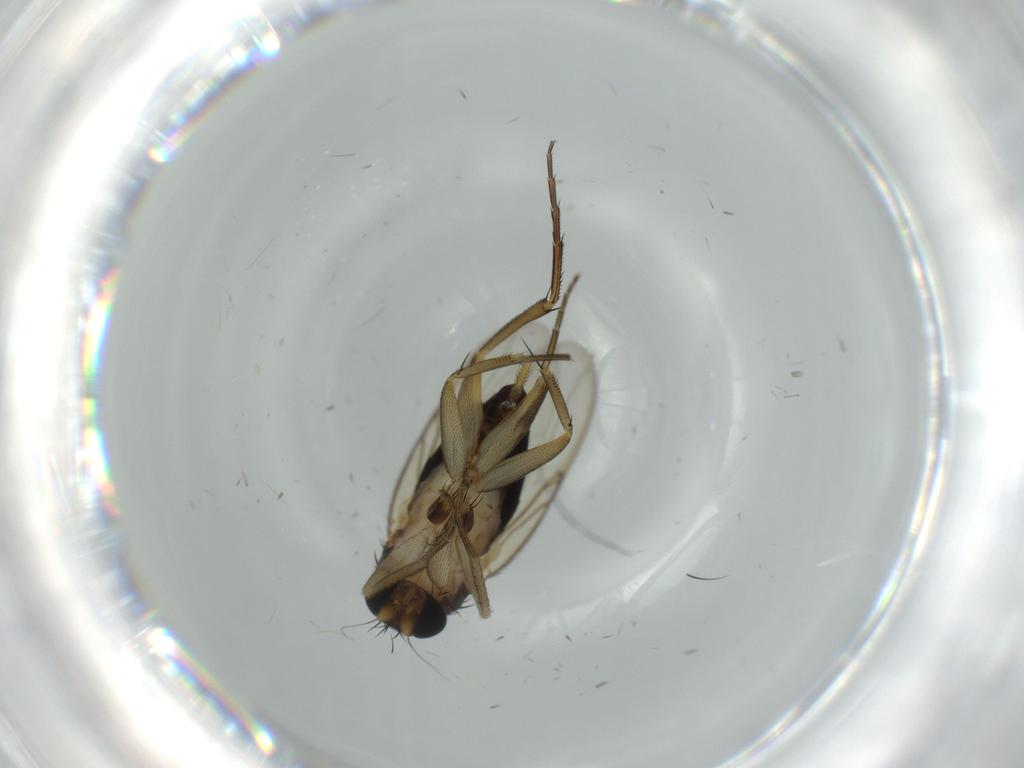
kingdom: Animalia
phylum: Arthropoda
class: Insecta
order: Diptera
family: Phoridae
